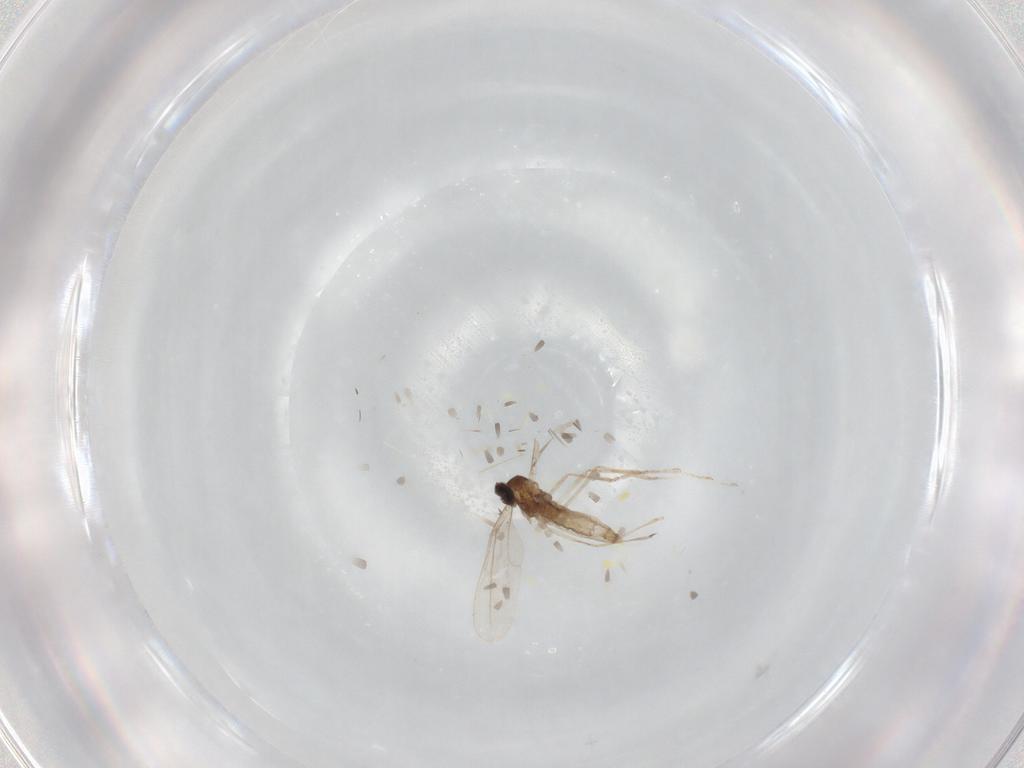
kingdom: Animalia
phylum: Arthropoda
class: Insecta
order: Diptera
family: Cecidomyiidae
